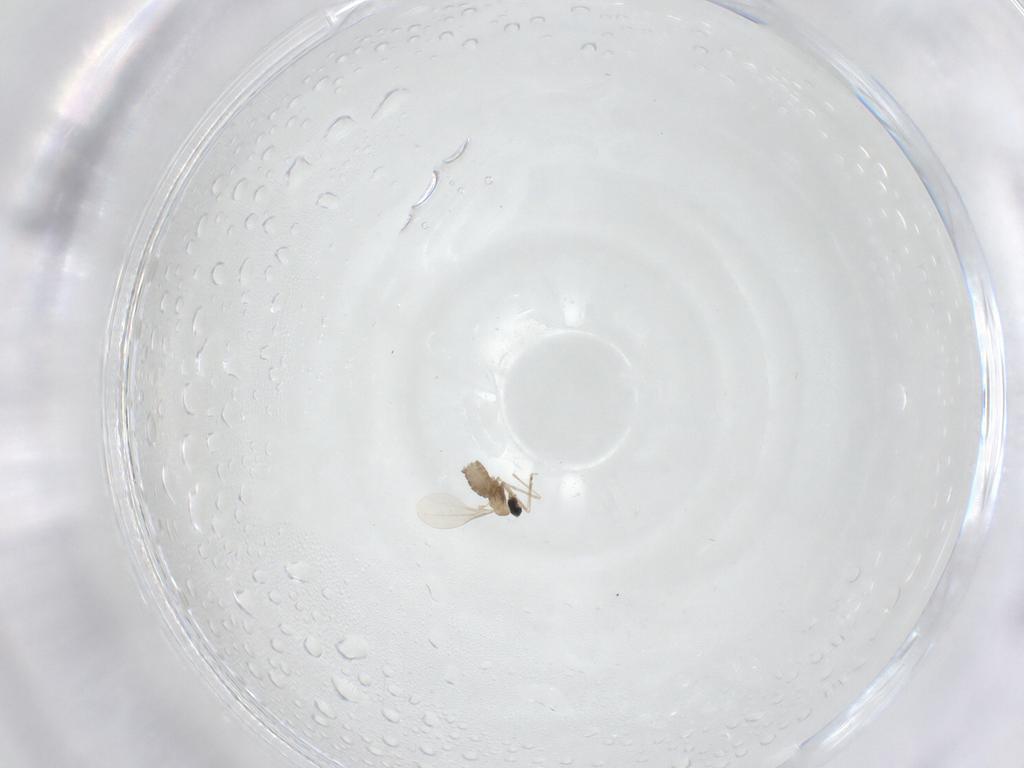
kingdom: Animalia
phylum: Arthropoda
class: Insecta
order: Diptera
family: Cecidomyiidae
